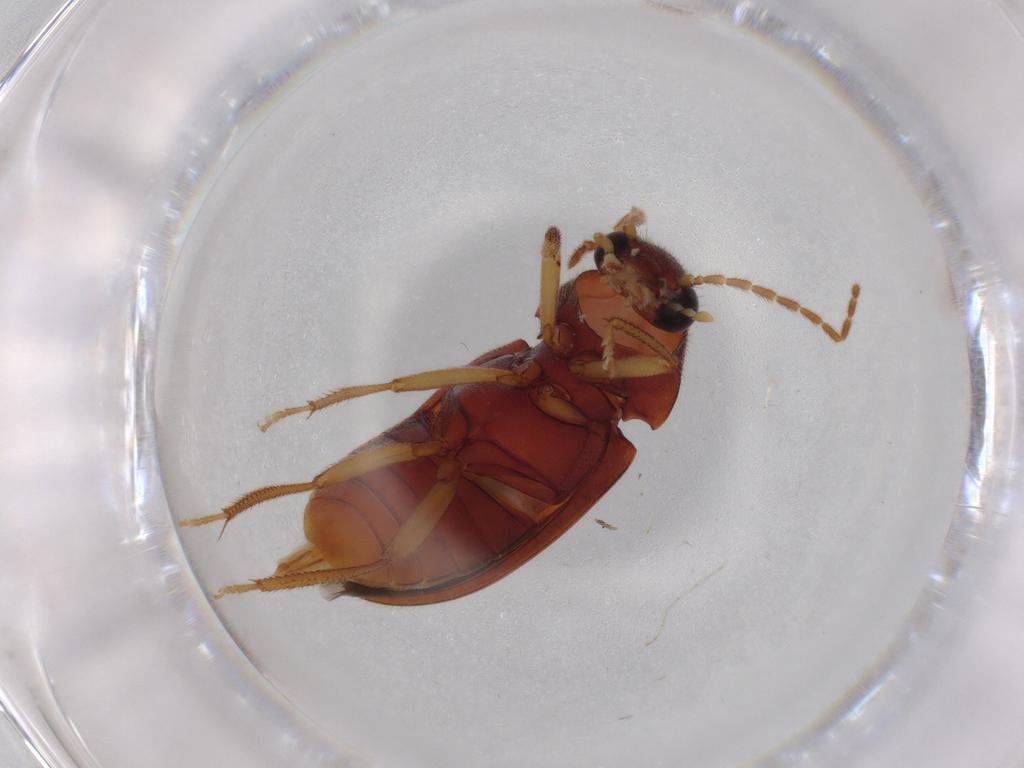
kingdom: Animalia
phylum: Arthropoda
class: Insecta
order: Coleoptera
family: Ptilodactylidae
